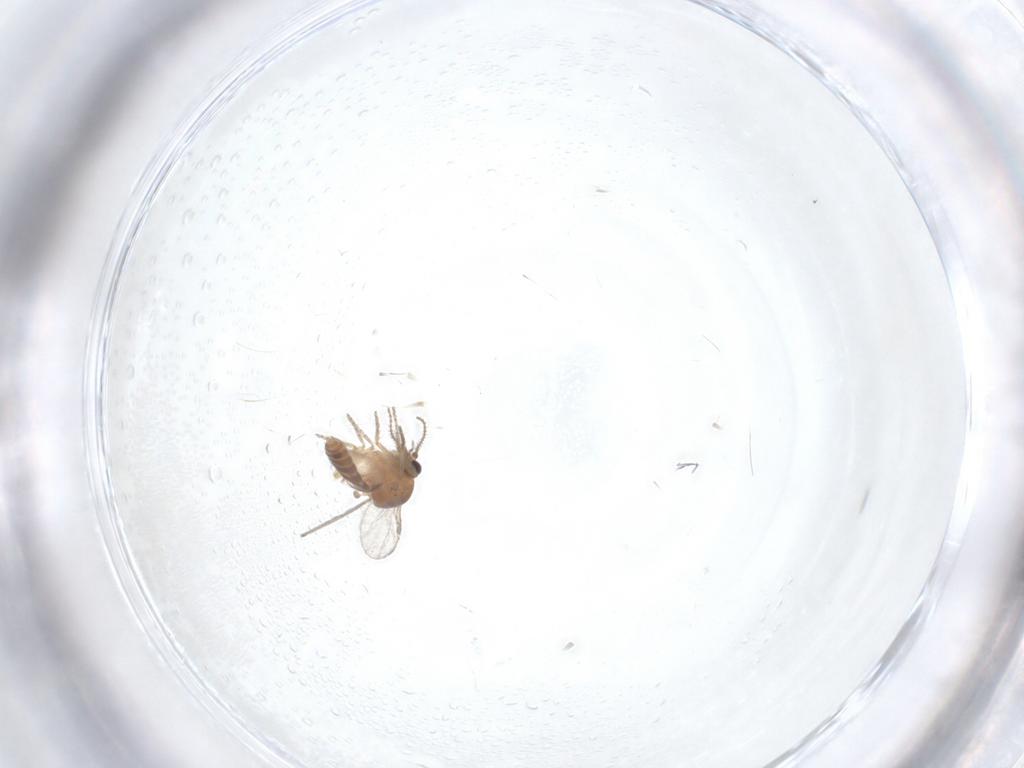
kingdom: Animalia
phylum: Arthropoda
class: Insecta
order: Diptera
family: Ceratopogonidae
